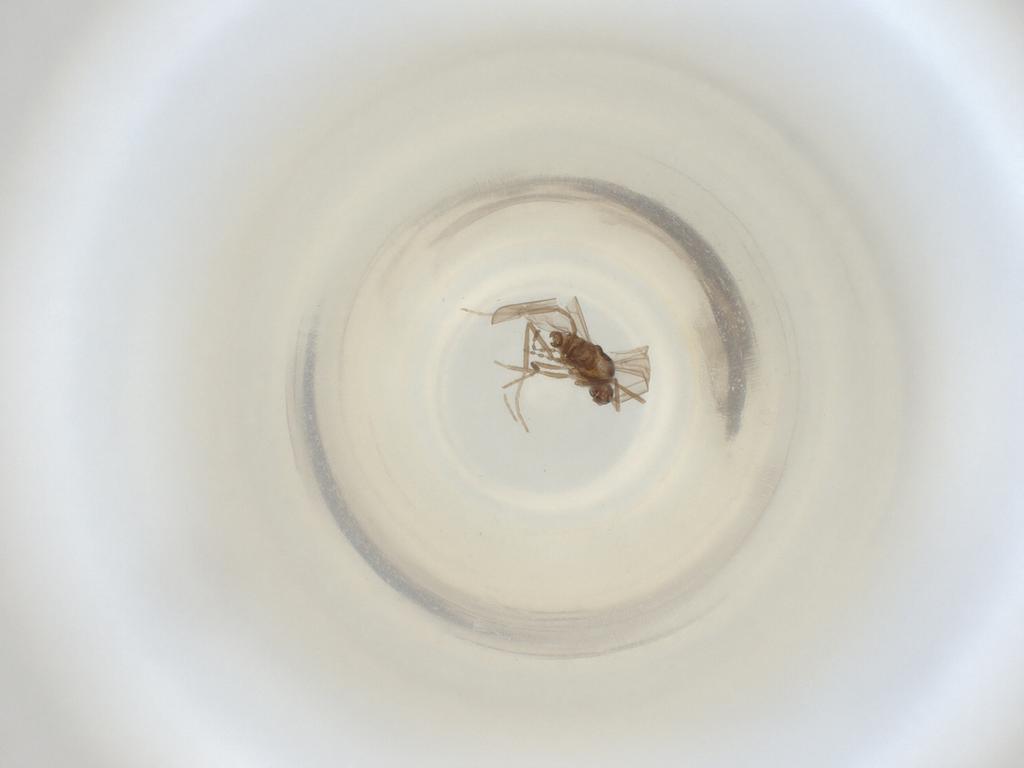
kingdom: Animalia
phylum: Arthropoda
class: Insecta
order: Diptera
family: Cecidomyiidae
